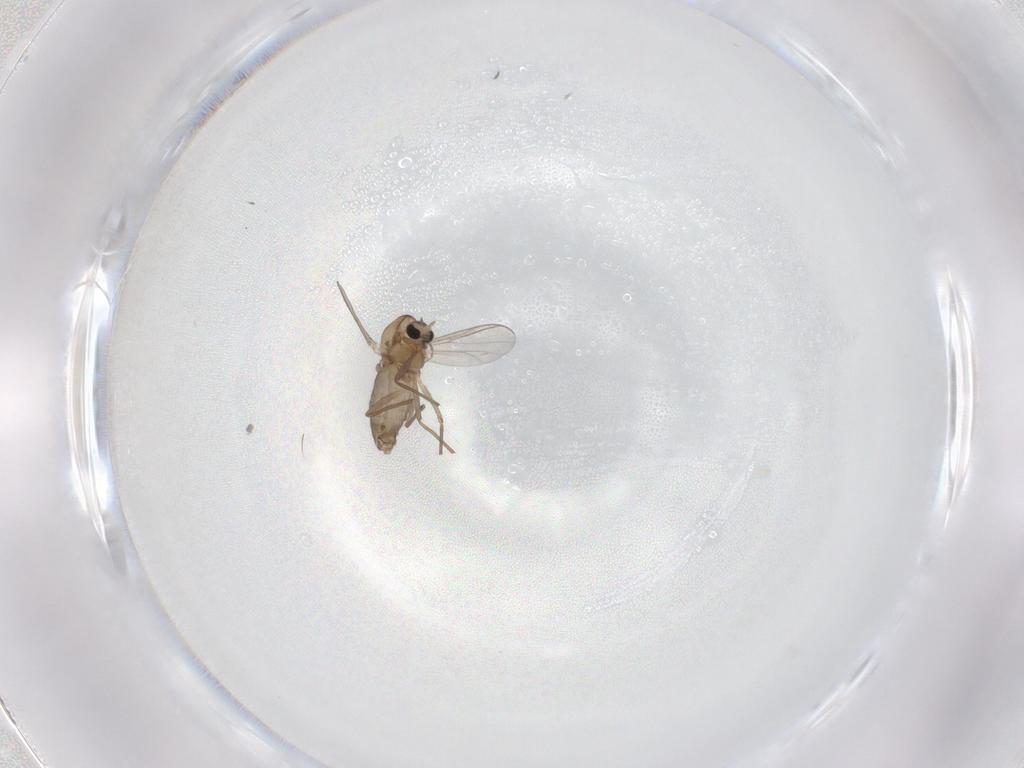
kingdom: Animalia
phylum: Arthropoda
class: Insecta
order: Diptera
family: Chironomidae
